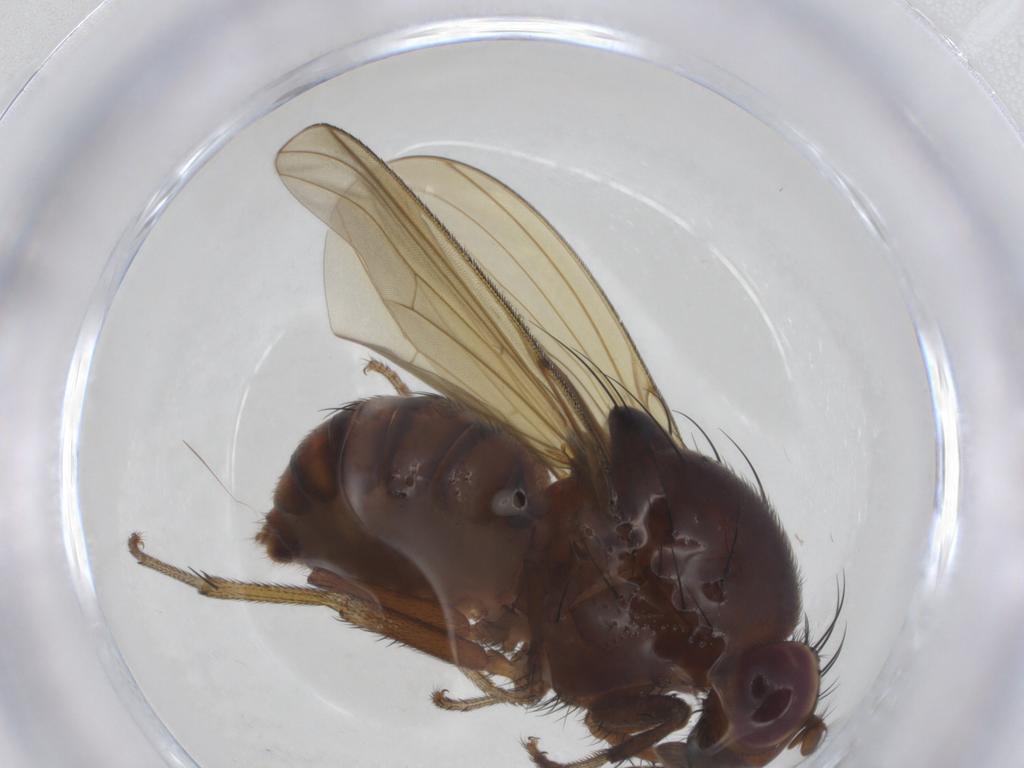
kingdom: Animalia
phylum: Arthropoda
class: Insecta
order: Diptera
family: Lauxaniidae
